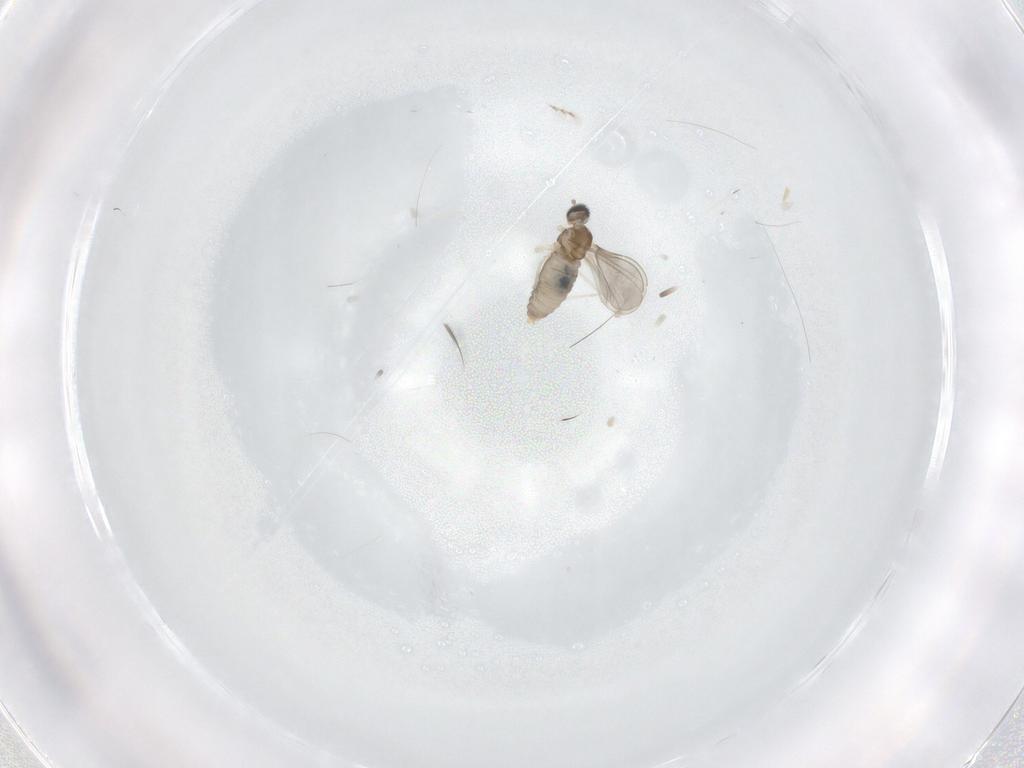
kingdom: Animalia
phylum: Arthropoda
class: Insecta
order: Diptera
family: Cecidomyiidae
